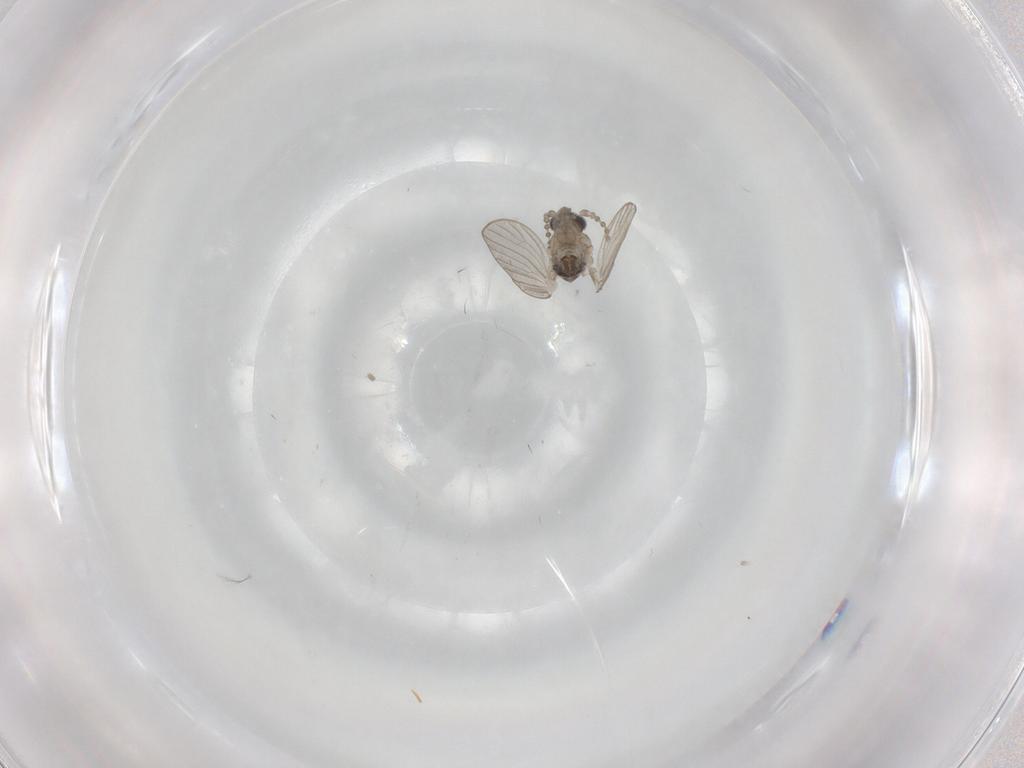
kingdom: Animalia
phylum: Arthropoda
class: Insecta
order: Diptera
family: Psychodidae
